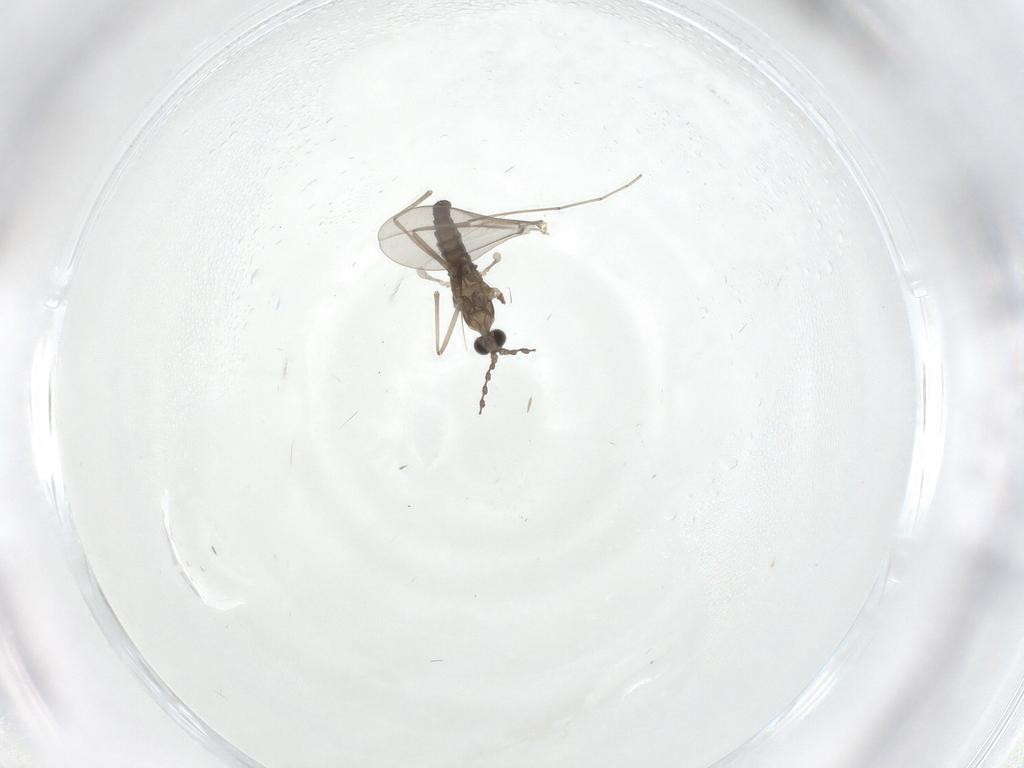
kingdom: Animalia
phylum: Arthropoda
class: Insecta
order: Diptera
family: Cecidomyiidae
